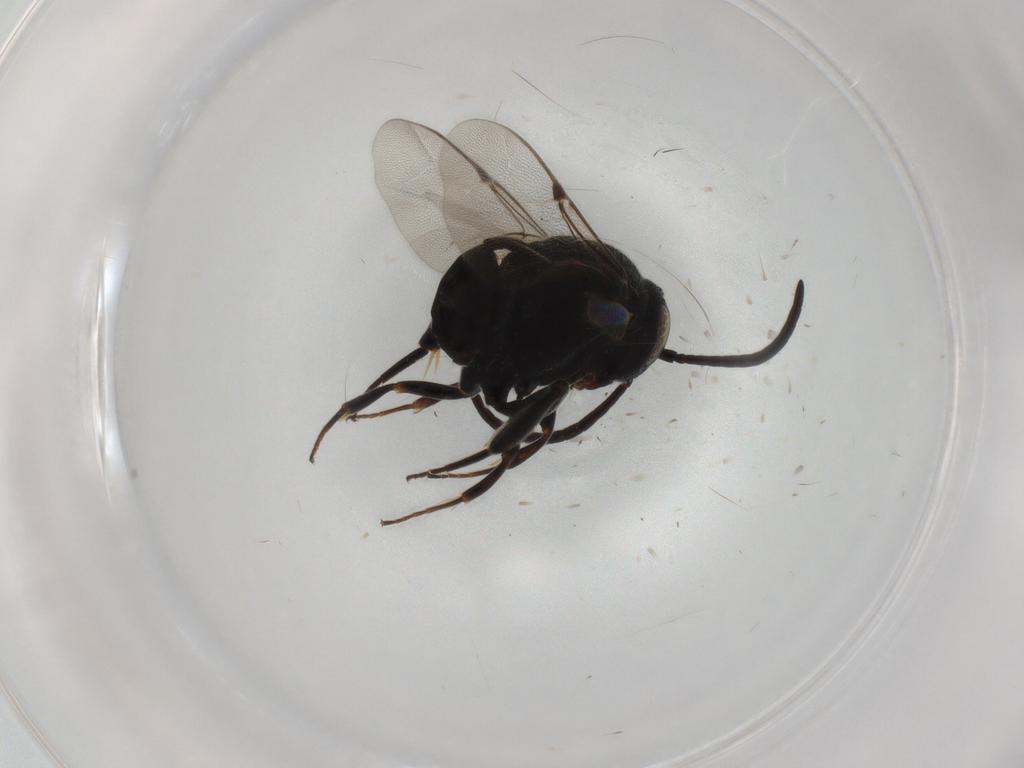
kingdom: Animalia
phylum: Arthropoda
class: Insecta
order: Hymenoptera
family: Evaniidae
